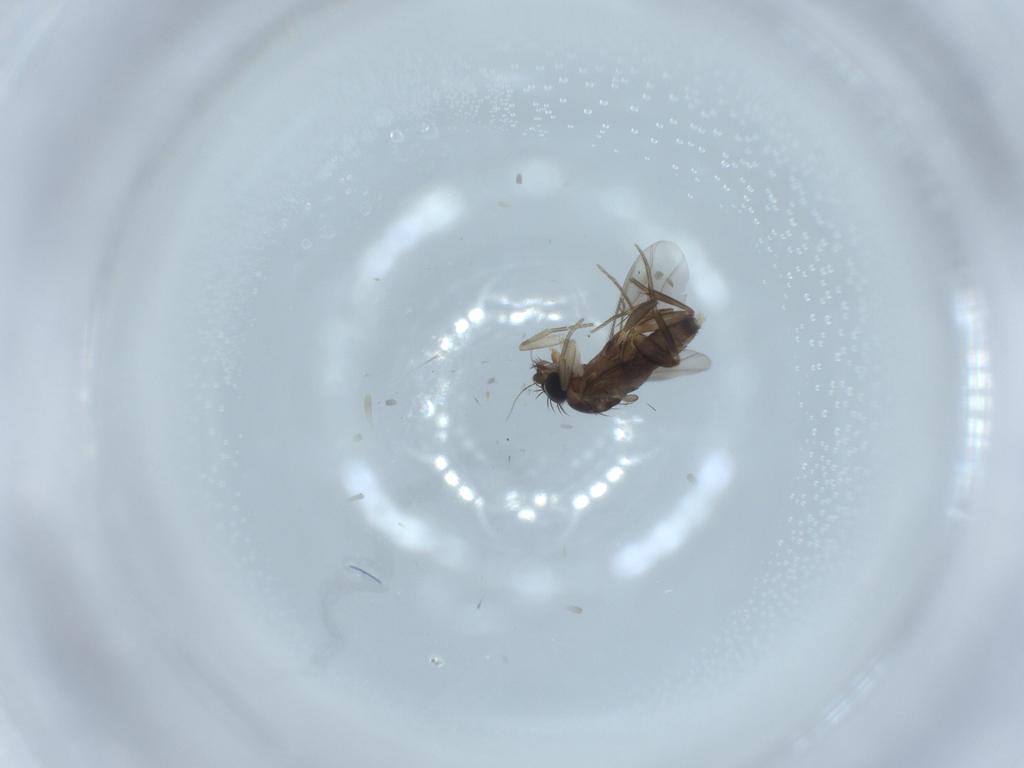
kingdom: Animalia
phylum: Arthropoda
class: Insecta
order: Diptera
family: Phoridae
